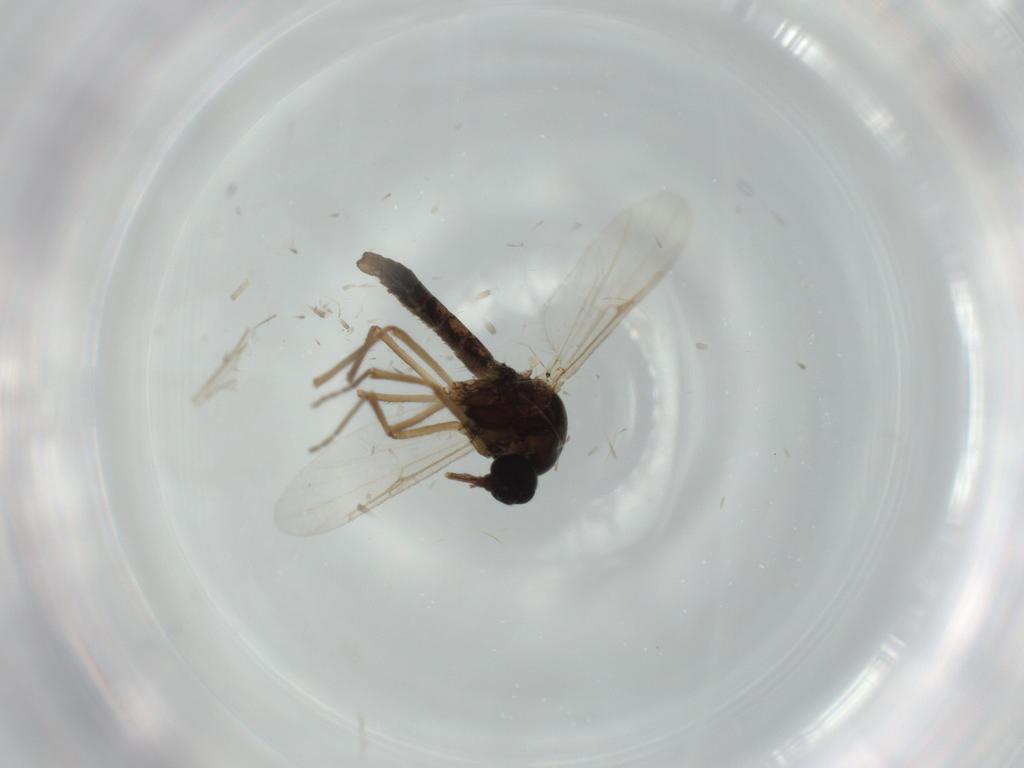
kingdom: Animalia
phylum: Arthropoda
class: Insecta
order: Diptera
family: Ceratopogonidae
